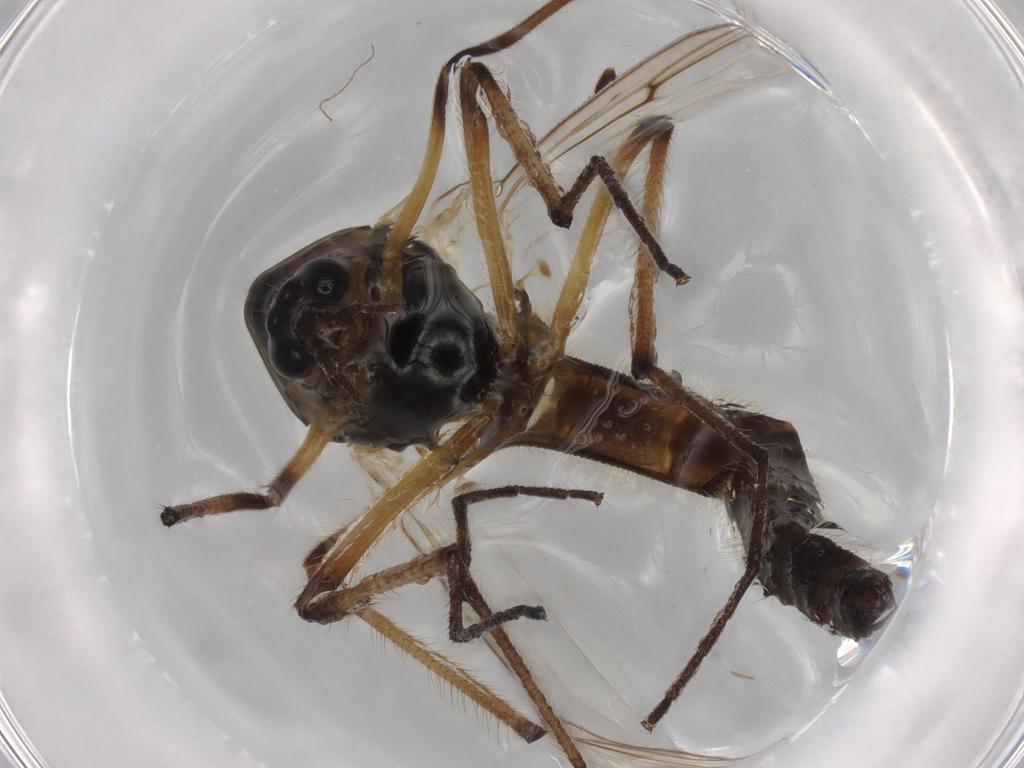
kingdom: Animalia
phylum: Arthropoda
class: Insecta
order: Diptera
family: Chironomidae
